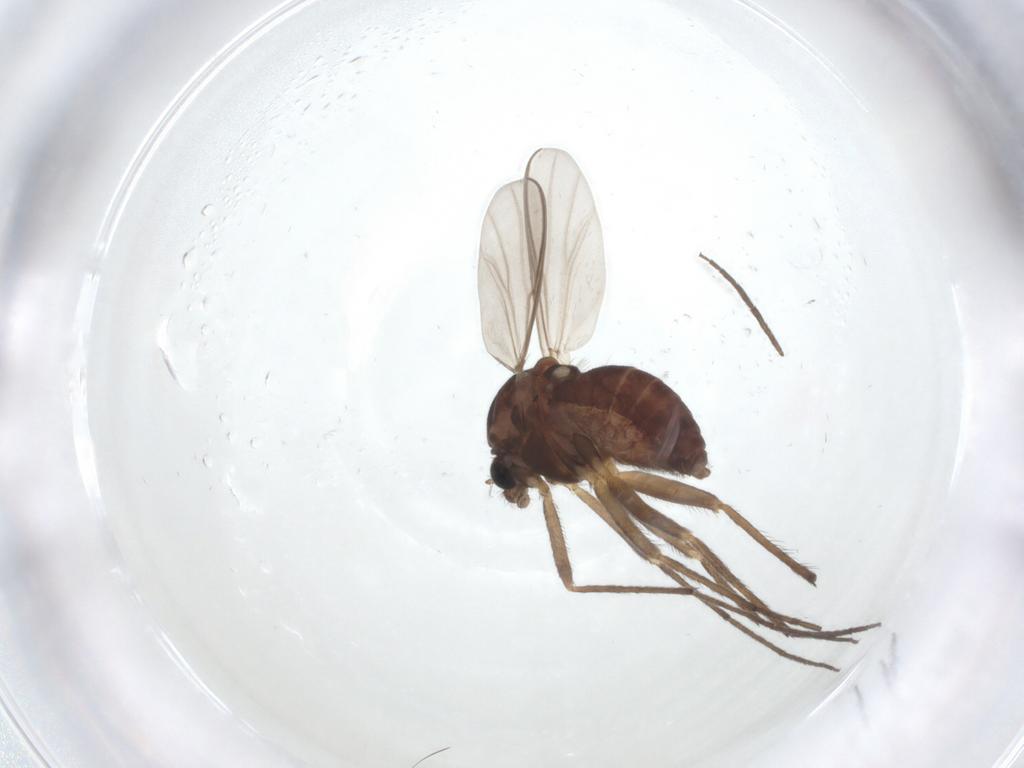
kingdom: Animalia
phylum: Arthropoda
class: Insecta
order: Diptera
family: Chironomidae
